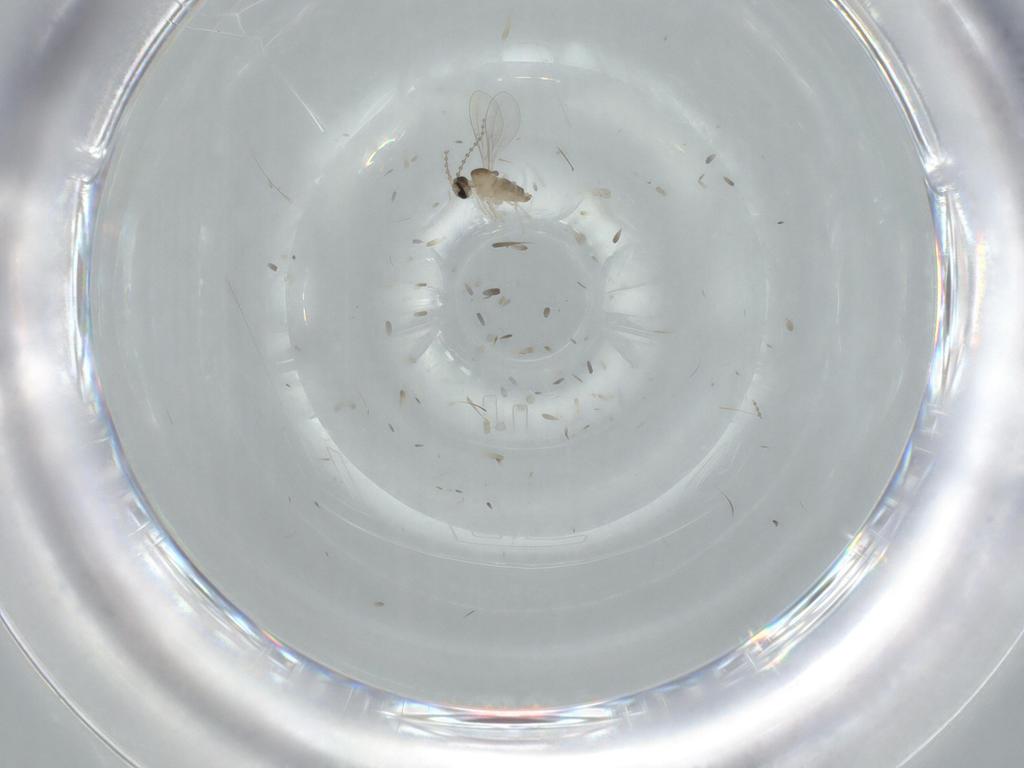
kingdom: Animalia
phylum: Arthropoda
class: Insecta
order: Diptera
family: Cecidomyiidae
